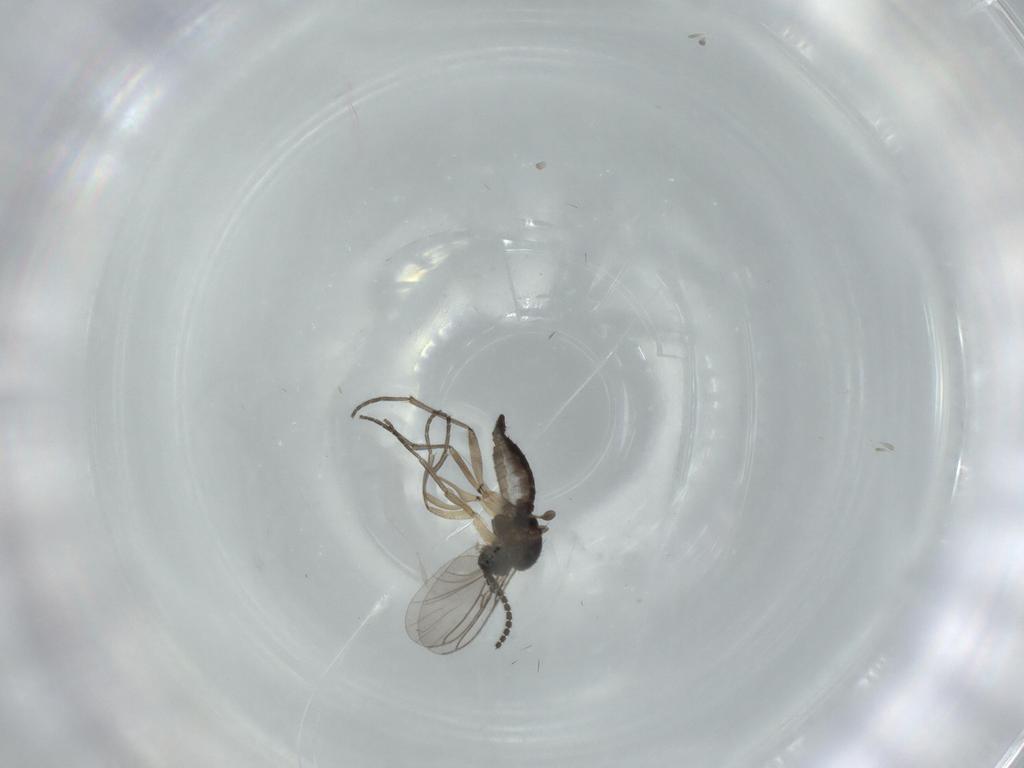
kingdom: Animalia
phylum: Arthropoda
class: Insecta
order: Diptera
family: Sciaridae
